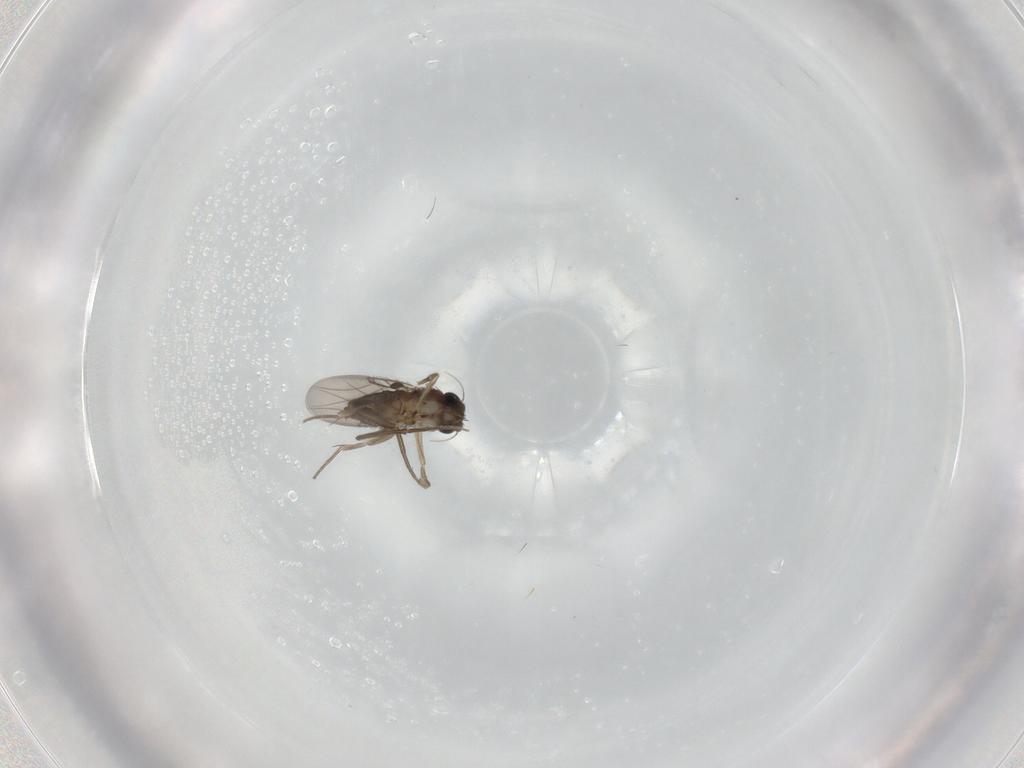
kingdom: Animalia
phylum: Arthropoda
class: Insecta
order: Diptera
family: Phoridae
